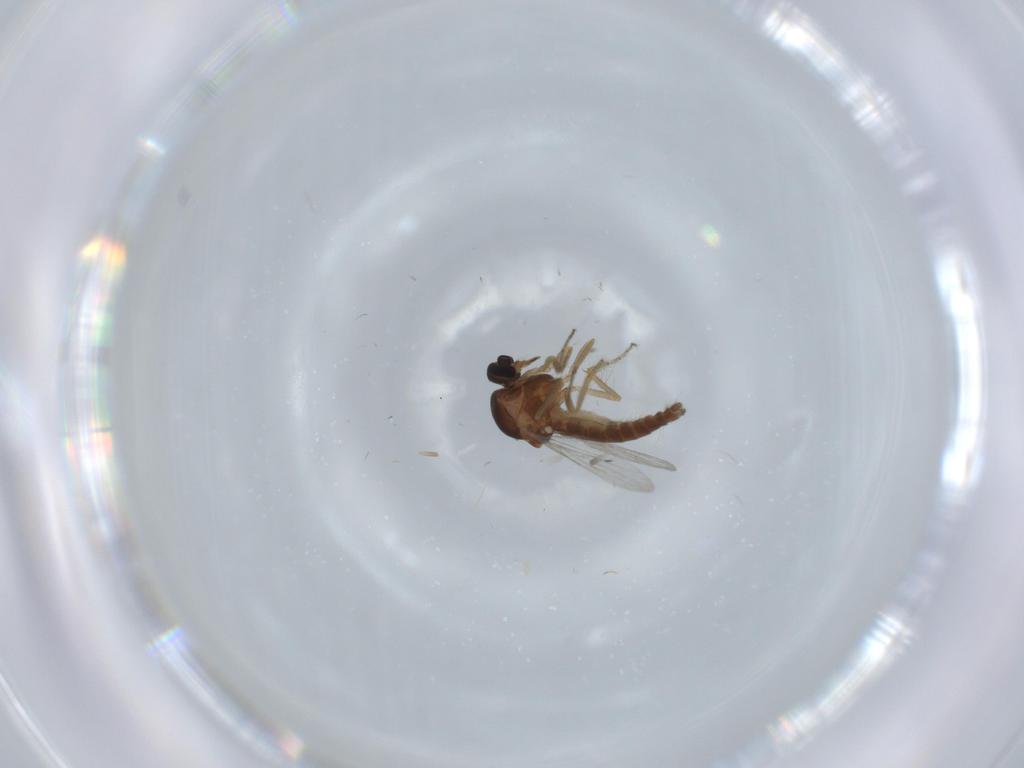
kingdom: Animalia
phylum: Arthropoda
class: Insecta
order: Diptera
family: Ceratopogonidae
